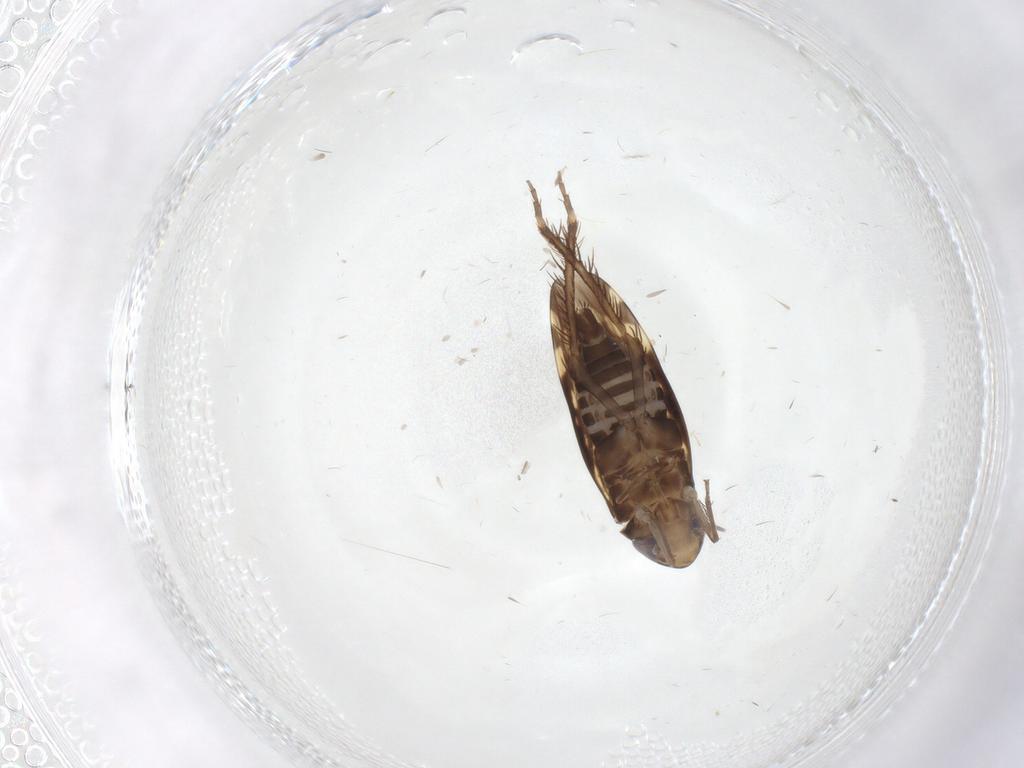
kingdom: Animalia
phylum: Arthropoda
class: Insecta
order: Hemiptera
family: Cicadellidae
